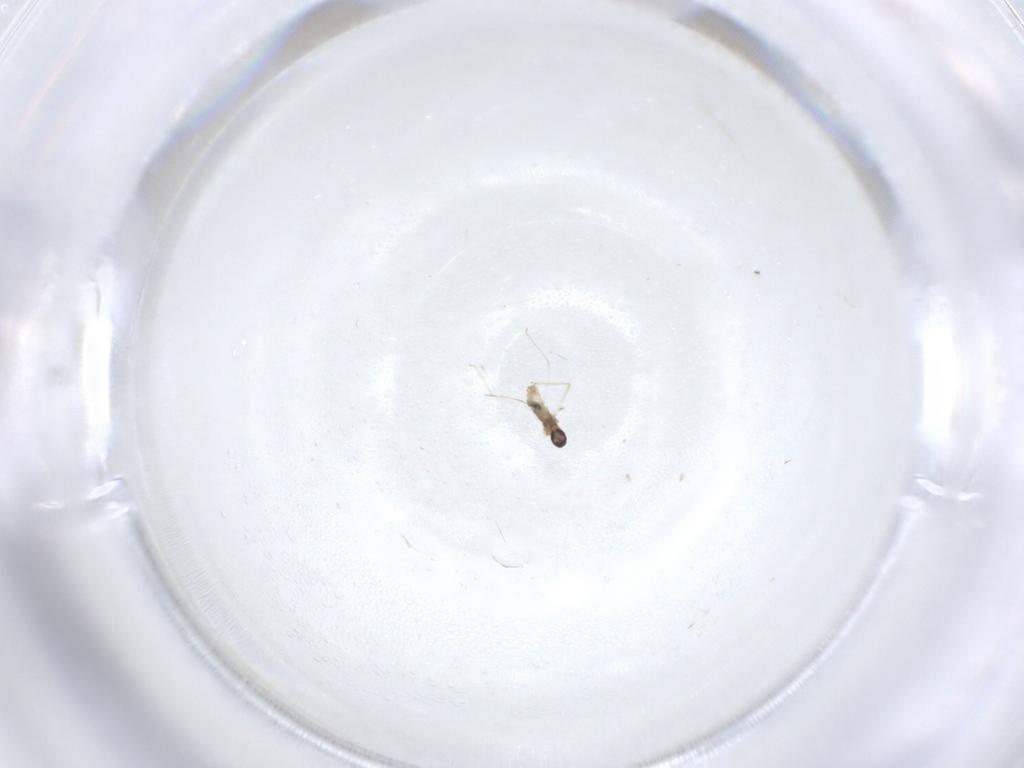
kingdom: Animalia
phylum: Arthropoda
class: Insecta
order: Diptera
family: Cecidomyiidae
